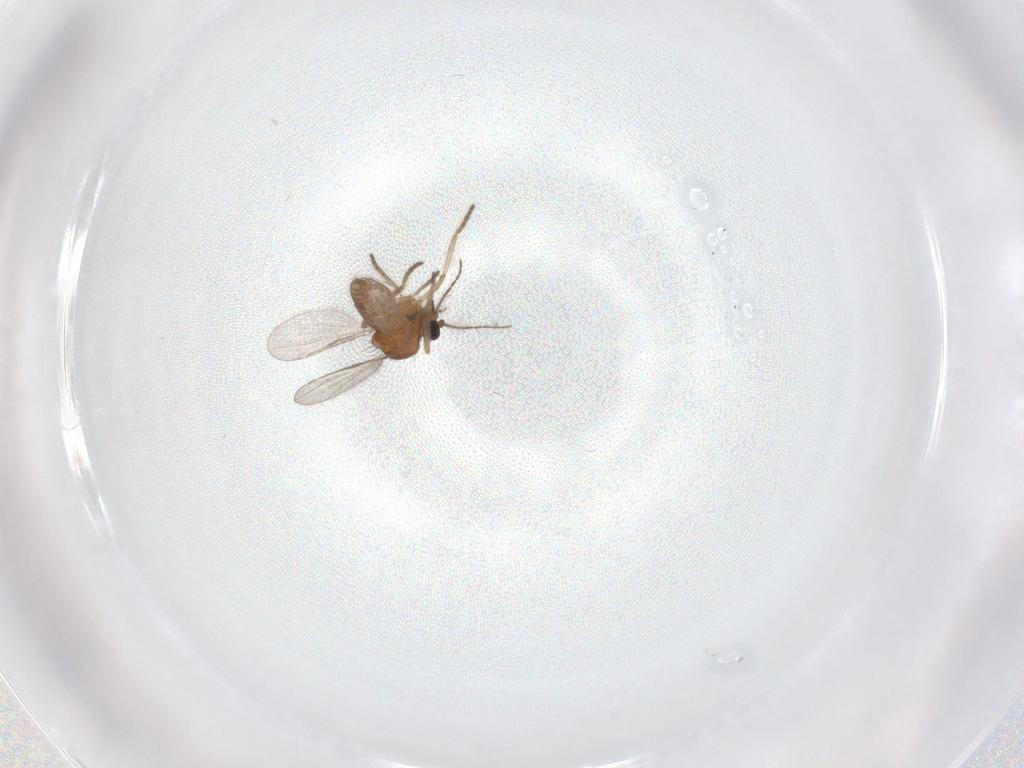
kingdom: Animalia
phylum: Arthropoda
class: Insecta
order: Diptera
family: Ceratopogonidae
